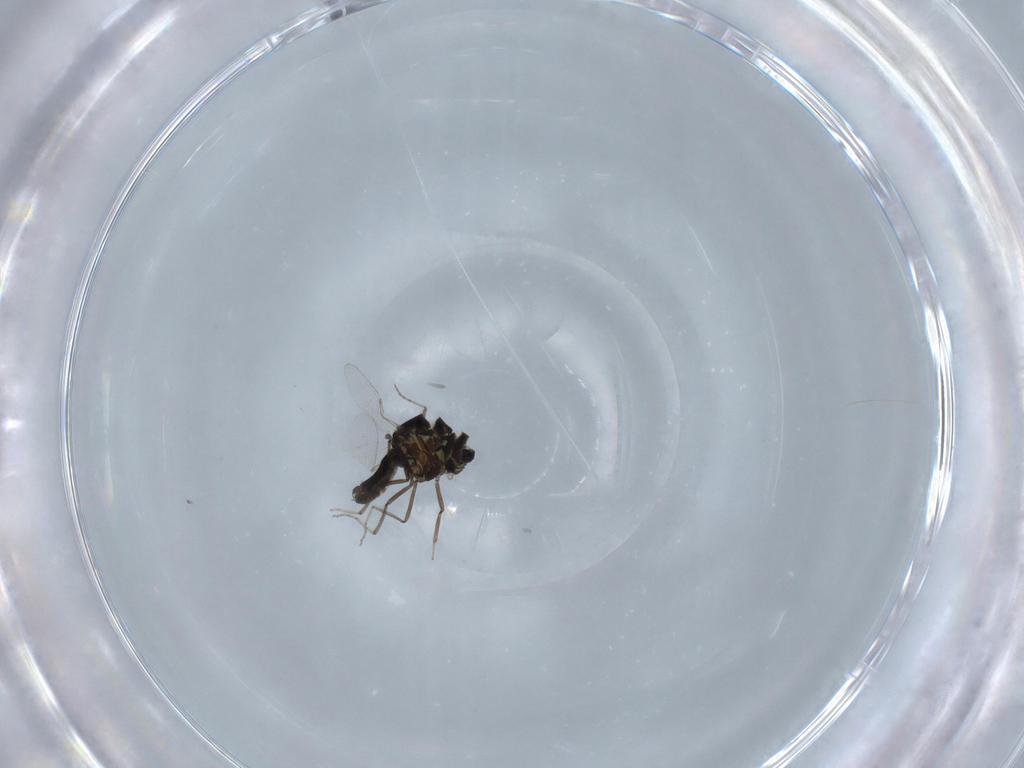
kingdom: Animalia
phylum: Arthropoda
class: Insecta
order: Diptera
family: Ceratopogonidae
